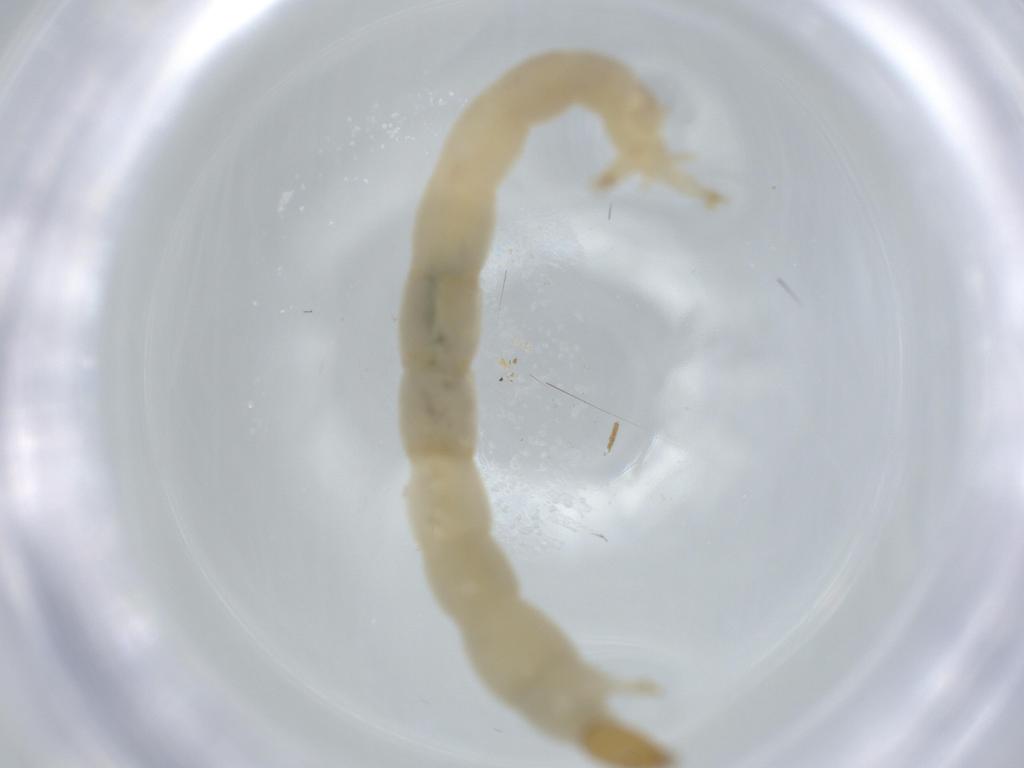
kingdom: Animalia
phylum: Arthropoda
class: Insecta
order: Diptera
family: Chironomidae
